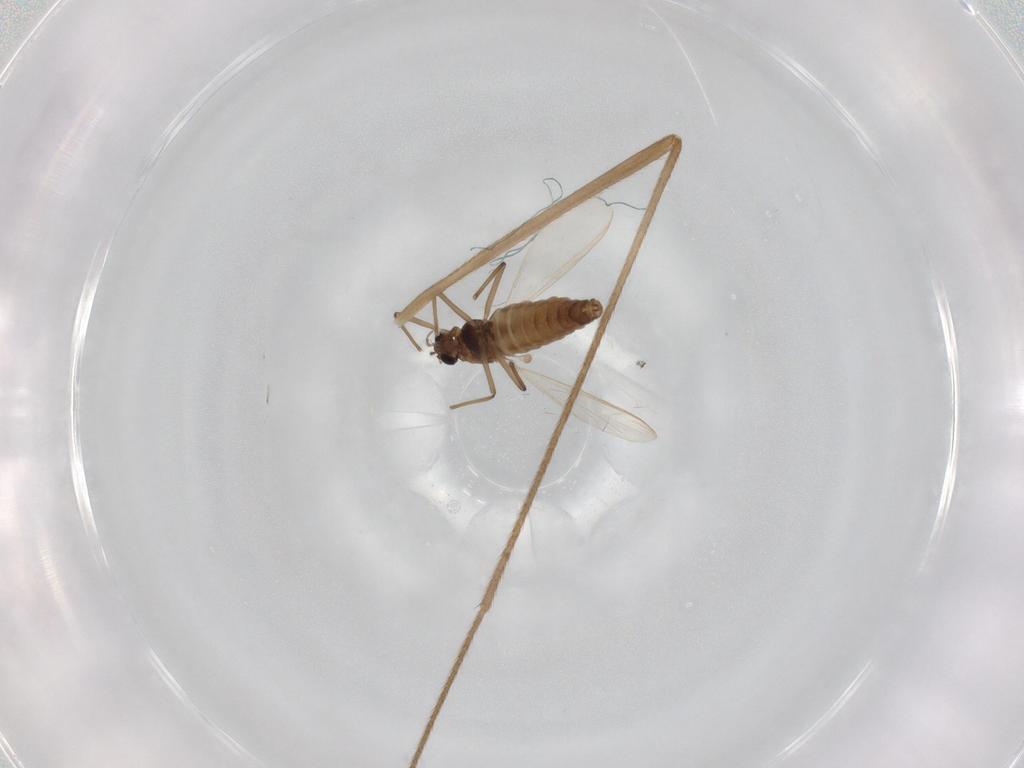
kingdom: Animalia
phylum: Arthropoda
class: Insecta
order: Diptera
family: Chironomidae
